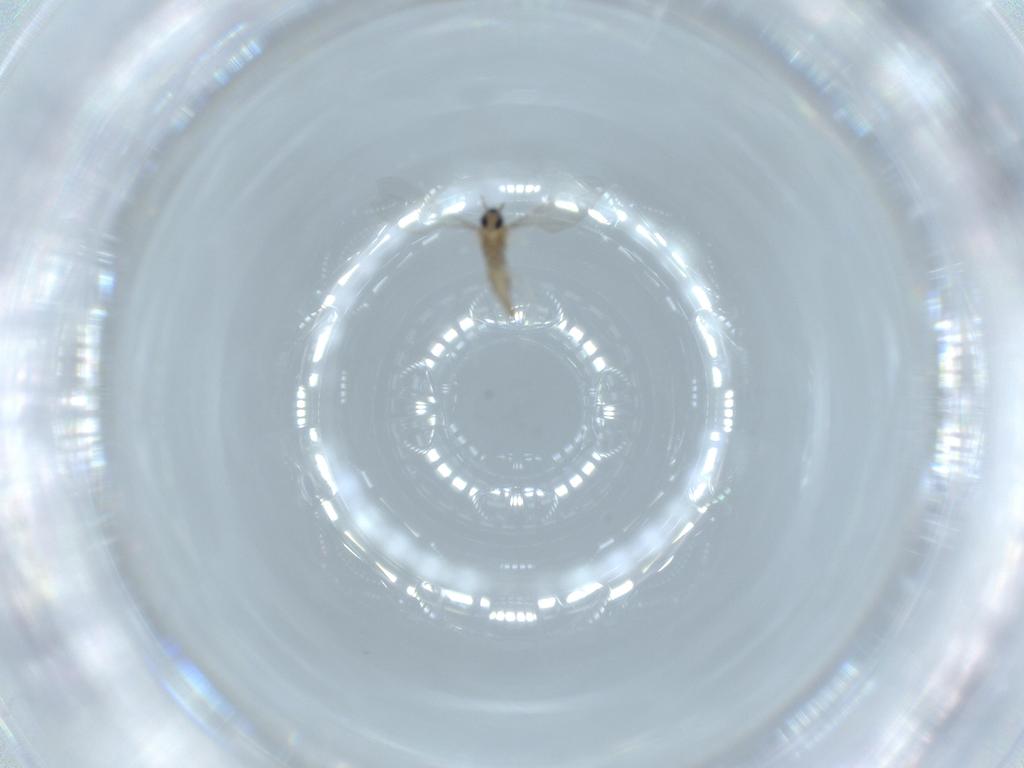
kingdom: Animalia
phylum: Arthropoda
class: Insecta
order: Diptera
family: Cecidomyiidae
